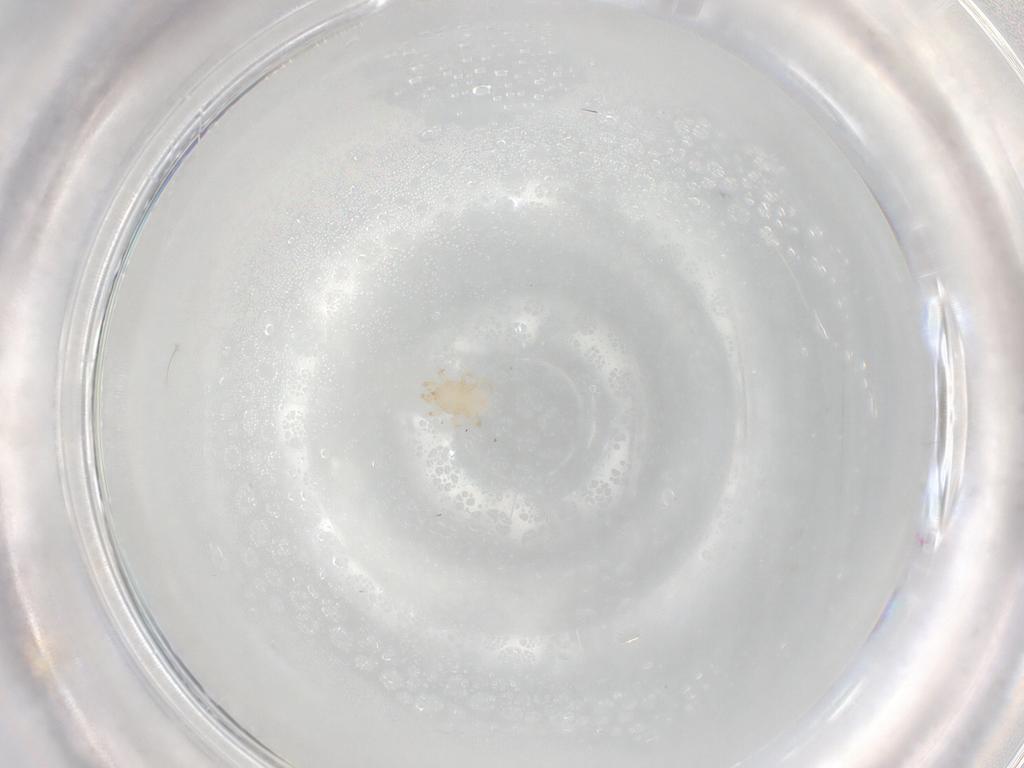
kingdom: Animalia
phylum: Arthropoda
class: Arachnida
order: Mesostigmata
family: Melicharidae
